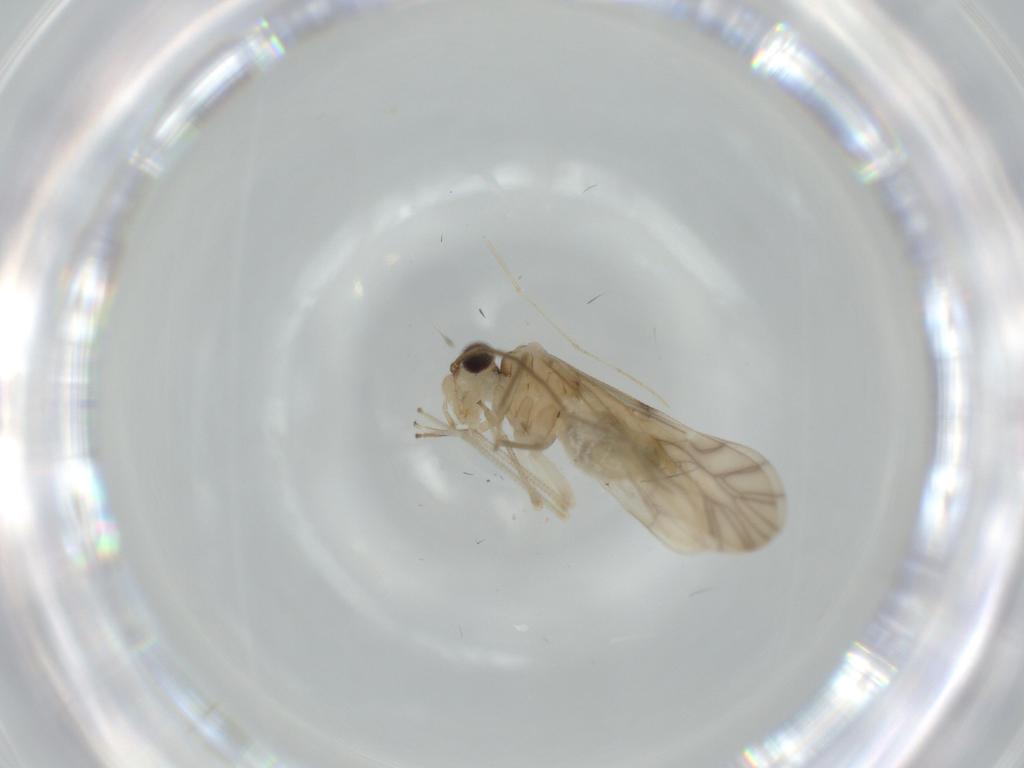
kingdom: Animalia
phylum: Arthropoda
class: Insecta
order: Psocodea
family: Caeciliusidae
